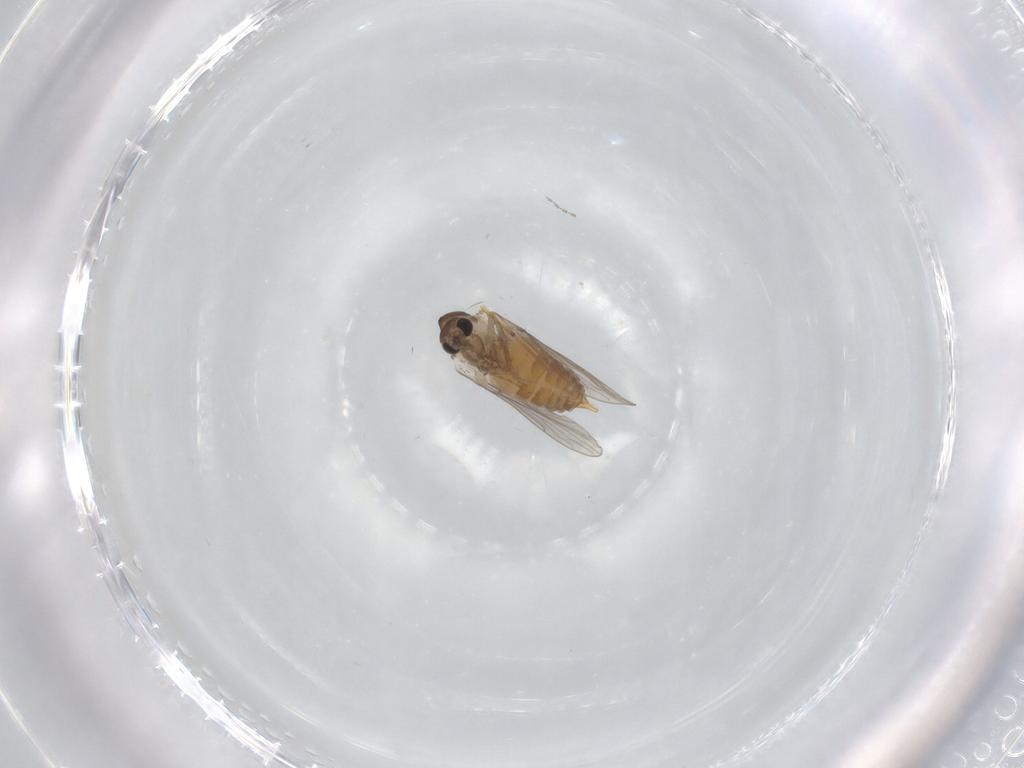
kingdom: Animalia
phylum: Arthropoda
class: Insecta
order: Diptera
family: Cecidomyiidae
